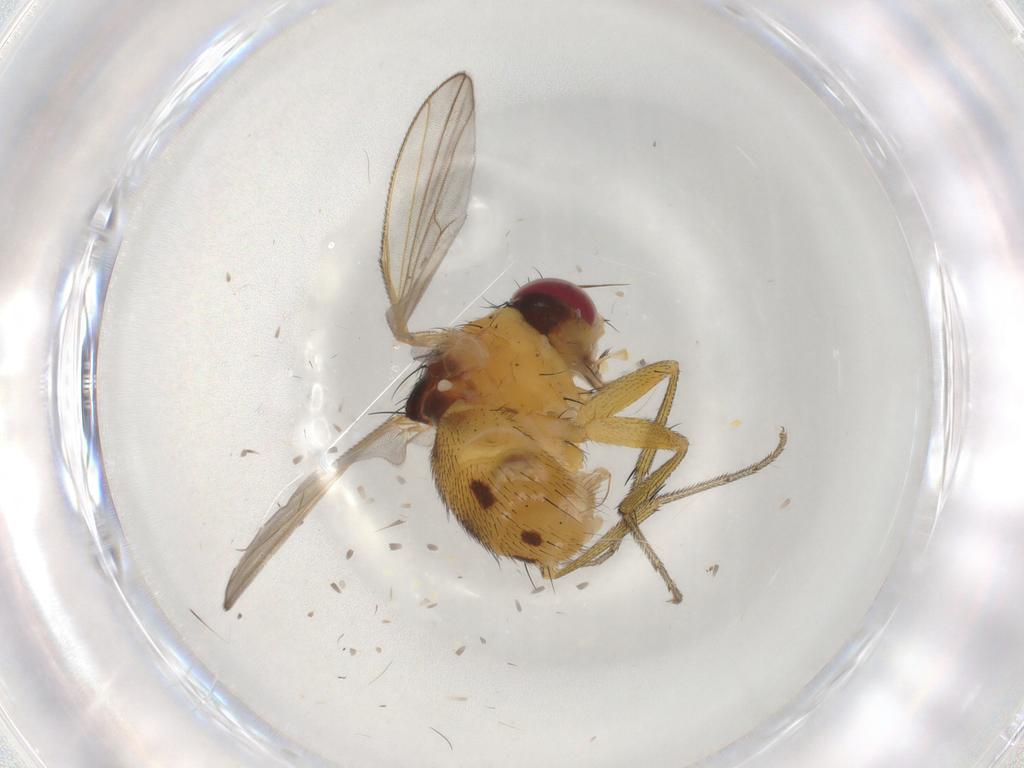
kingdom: Animalia
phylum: Arthropoda
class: Insecta
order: Diptera
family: Muscidae
